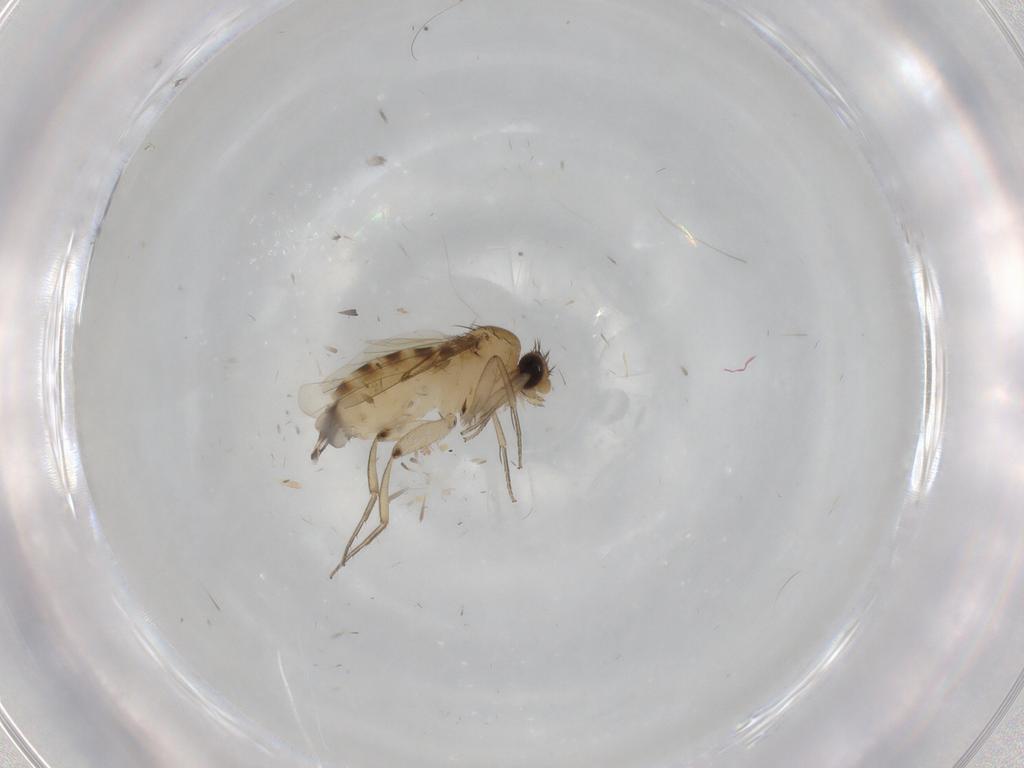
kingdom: Animalia
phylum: Arthropoda
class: Insecta
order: Diptera
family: Phoridae
